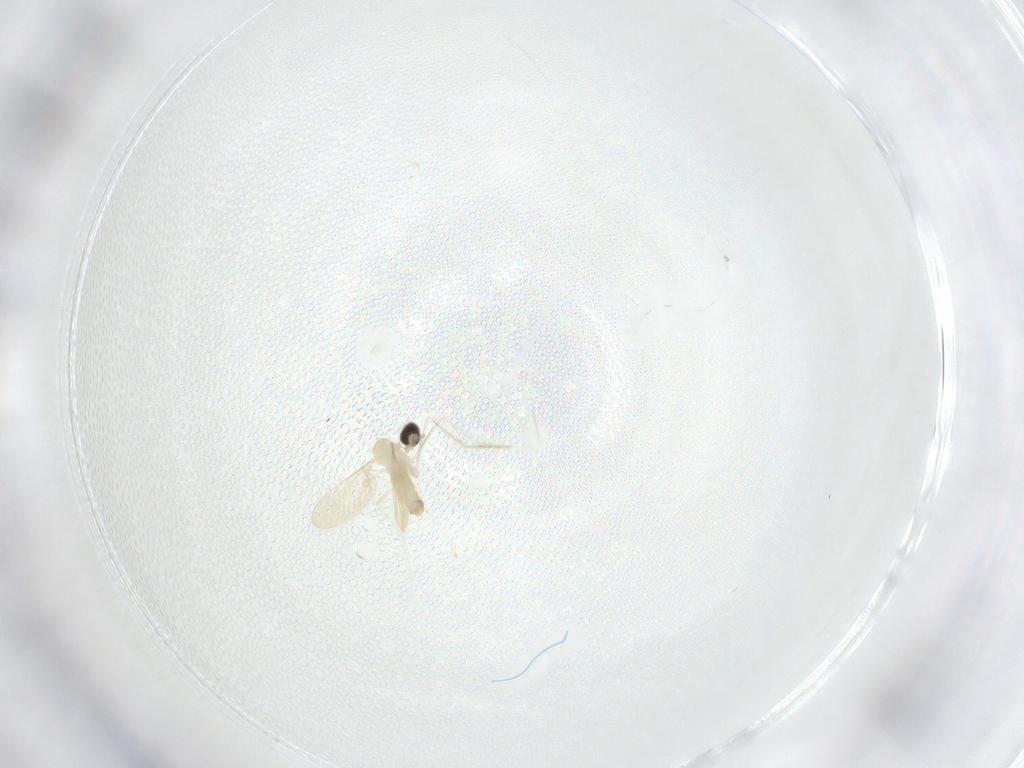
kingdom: Animalia
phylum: Arthropoda
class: Insecta
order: Diptera
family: Cecidomyiidae
